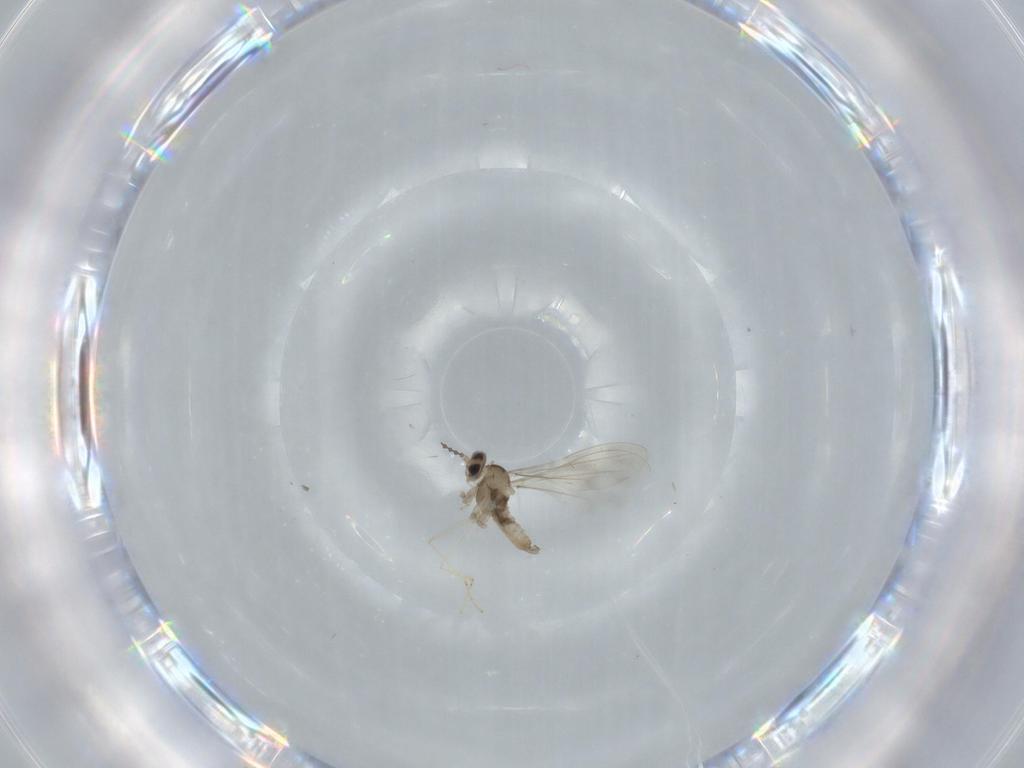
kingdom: Animalia
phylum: Arthropoda
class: Insecta
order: Diptera
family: Cecidomyiidae
